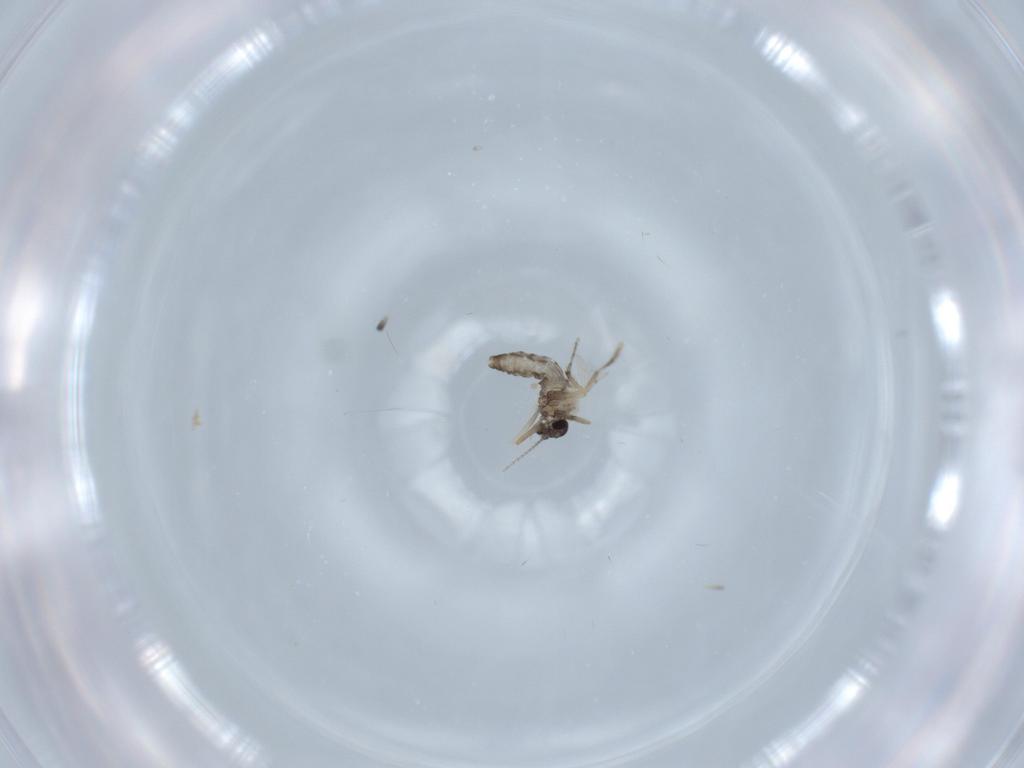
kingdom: Animalia
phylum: Arthropoda
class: Insecta
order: Diptera
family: Ceratopogonidae
